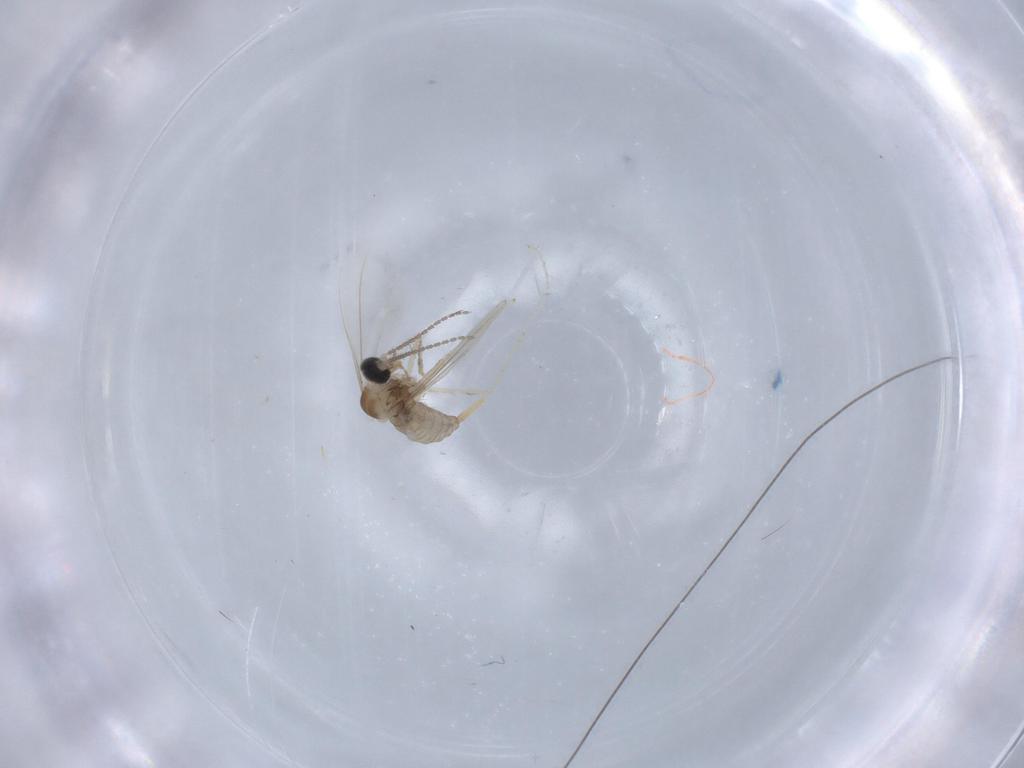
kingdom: Animalia
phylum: Arthropoda
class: Insecta
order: Diptera
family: Cecidomyiidae
